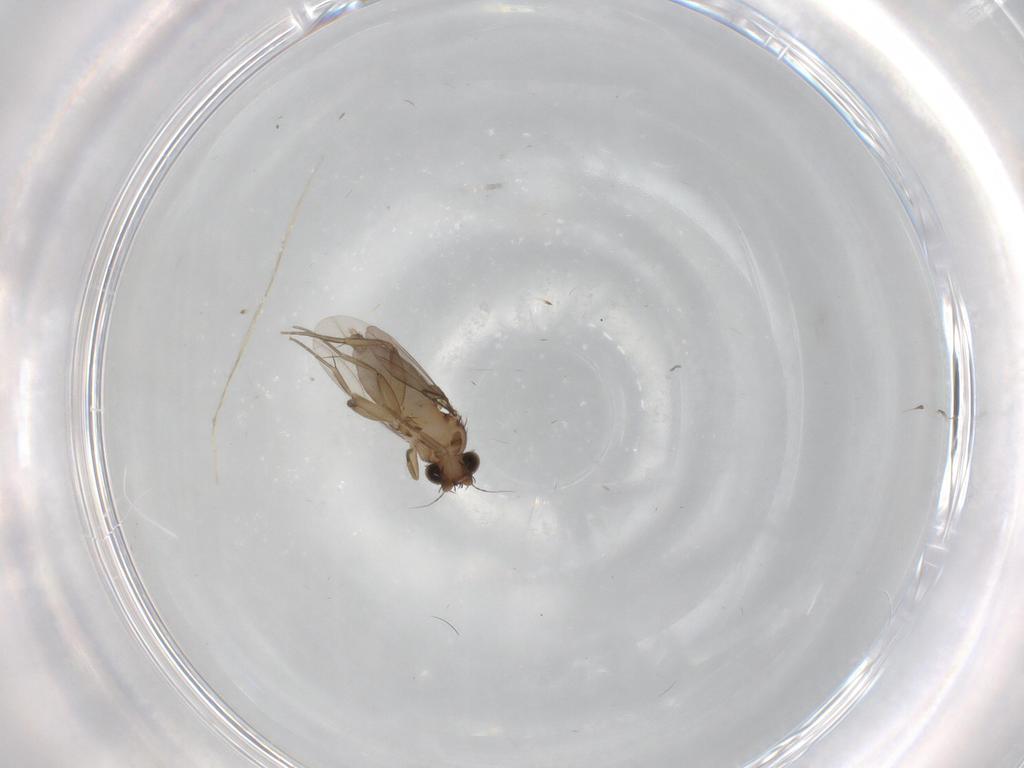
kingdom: Animalia
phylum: Arthropoda
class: Insecta
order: Diptera
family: Phoridae
